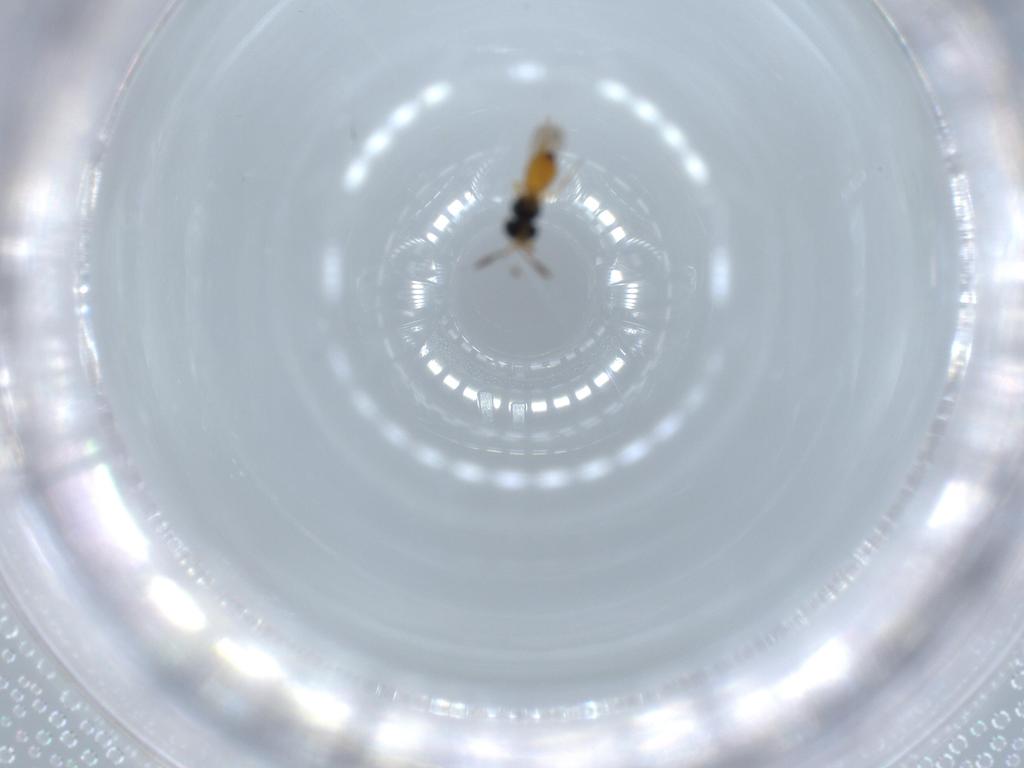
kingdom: Animalia
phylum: Arthropoda
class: Insecta
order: Hymenoptera
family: Scelionidae
